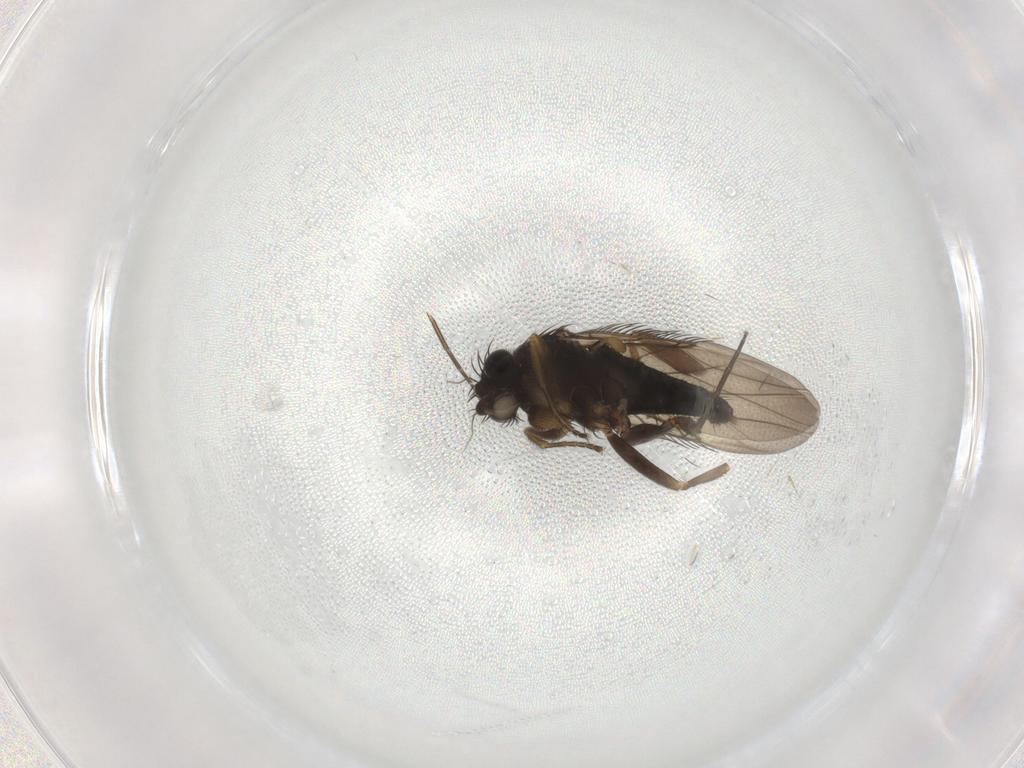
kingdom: Animalia
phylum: Arthropoda
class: Insecta
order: Diptera
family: Phoridae
